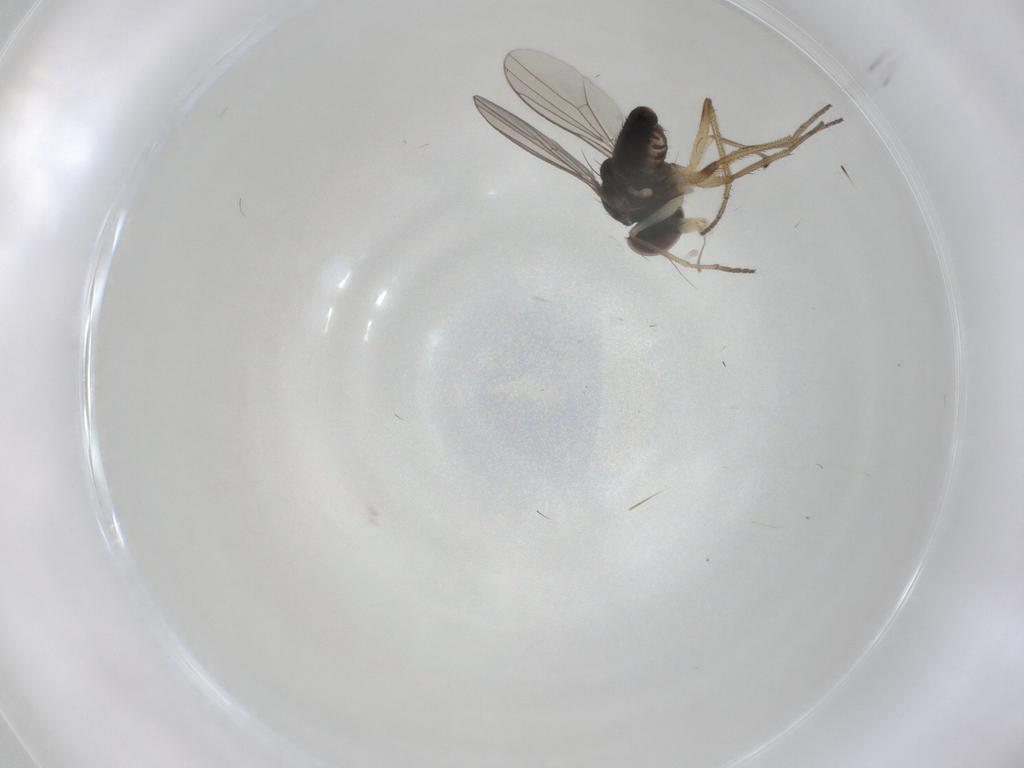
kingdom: Animalia
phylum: Arthropoda
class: Insecta
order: Diptera
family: Dolichopodidae
